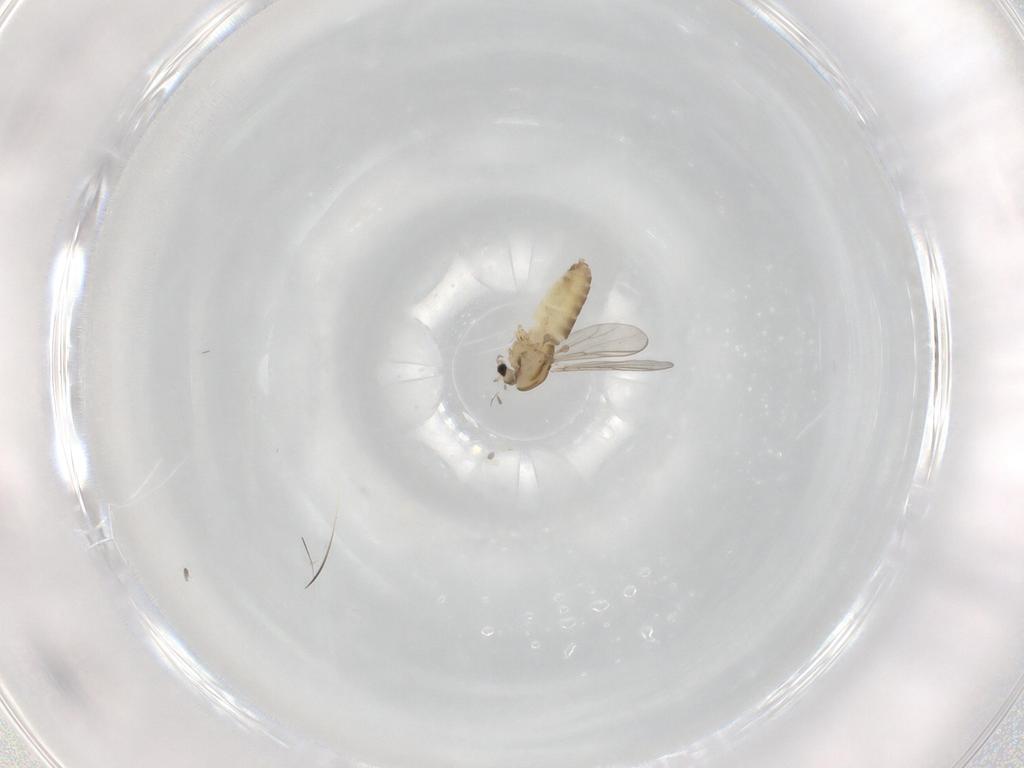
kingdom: Animalia
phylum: Arthropoda
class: Insecta
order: Diptera
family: Chironomidae
